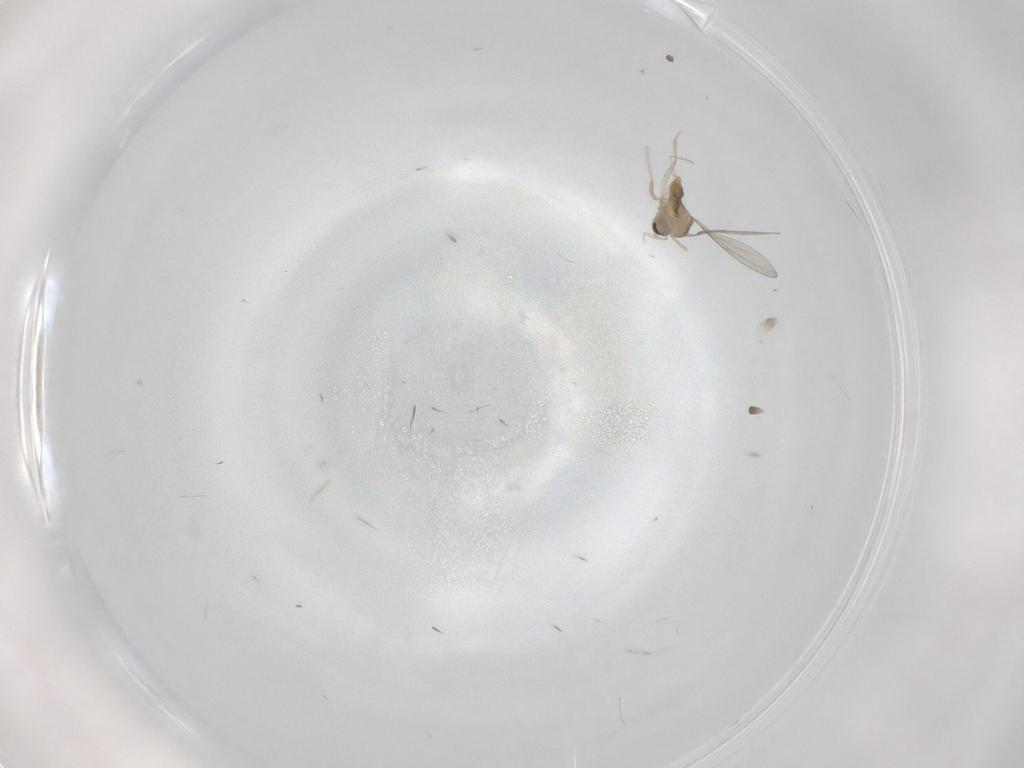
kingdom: Animalia
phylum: Arthropoda
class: Insecta
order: Diptera
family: Cecidomyiidae
